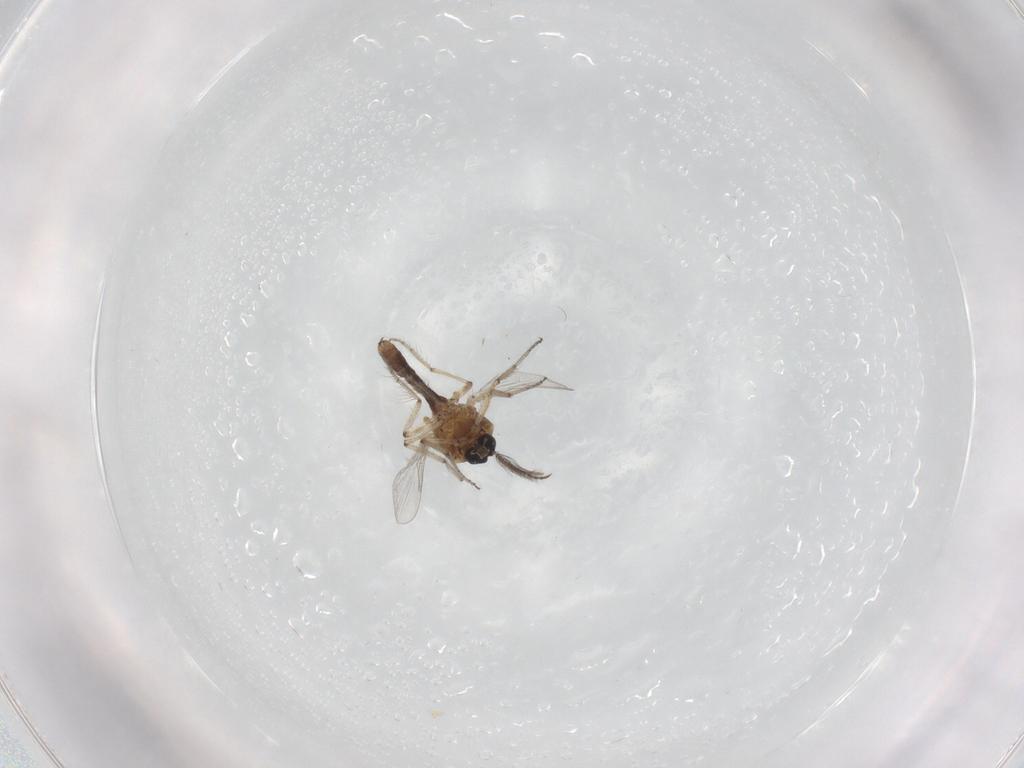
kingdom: Animalia
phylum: Arthropoda
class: Insecta
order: Diptera
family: Ceratopogonidae
